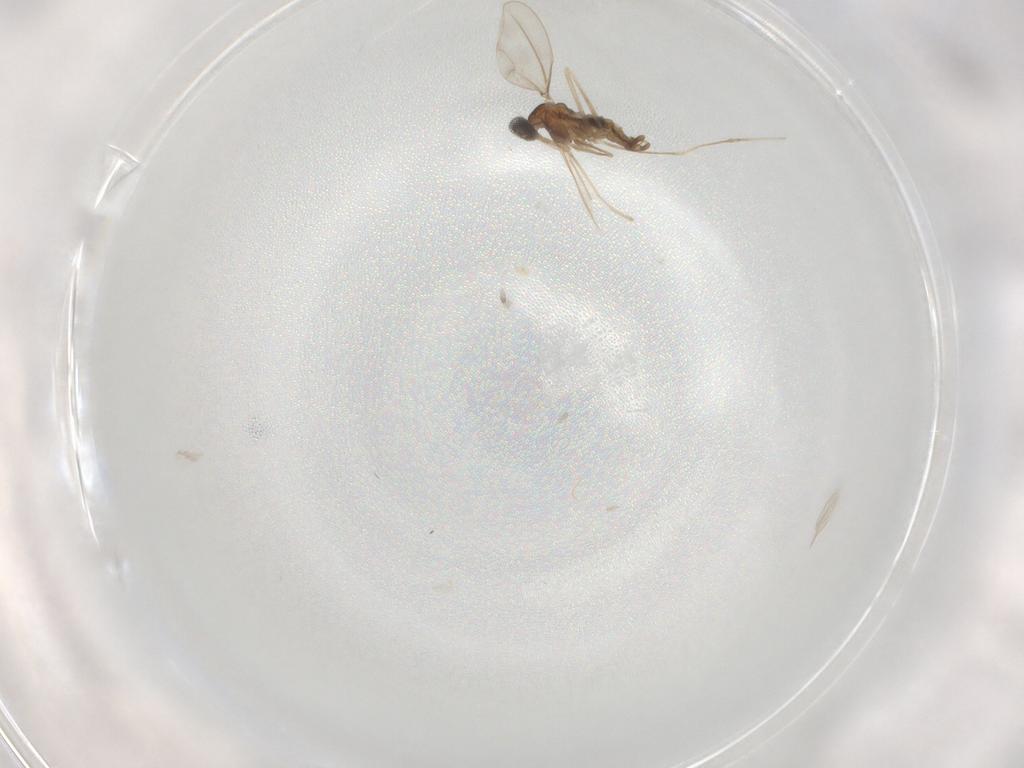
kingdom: Animalia
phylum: Arthropoda
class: Insecta
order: Diptera
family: Cecidomyiidae
